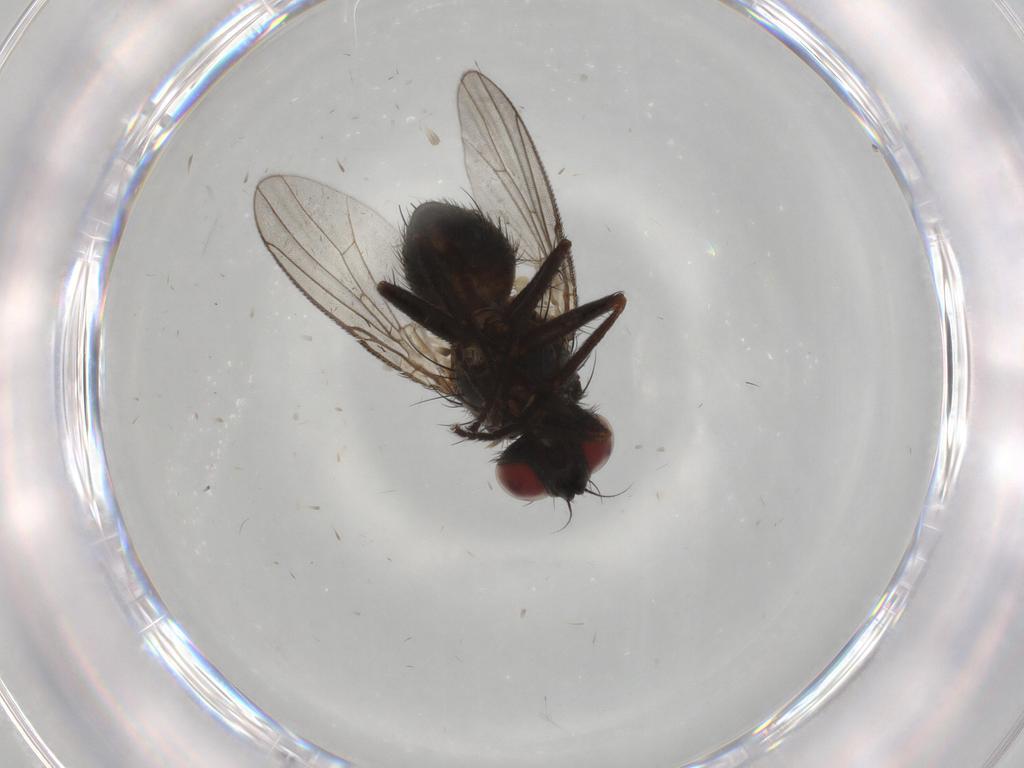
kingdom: Animalia
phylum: Arthropoda
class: Insecta
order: Diptera
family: Muscidae
